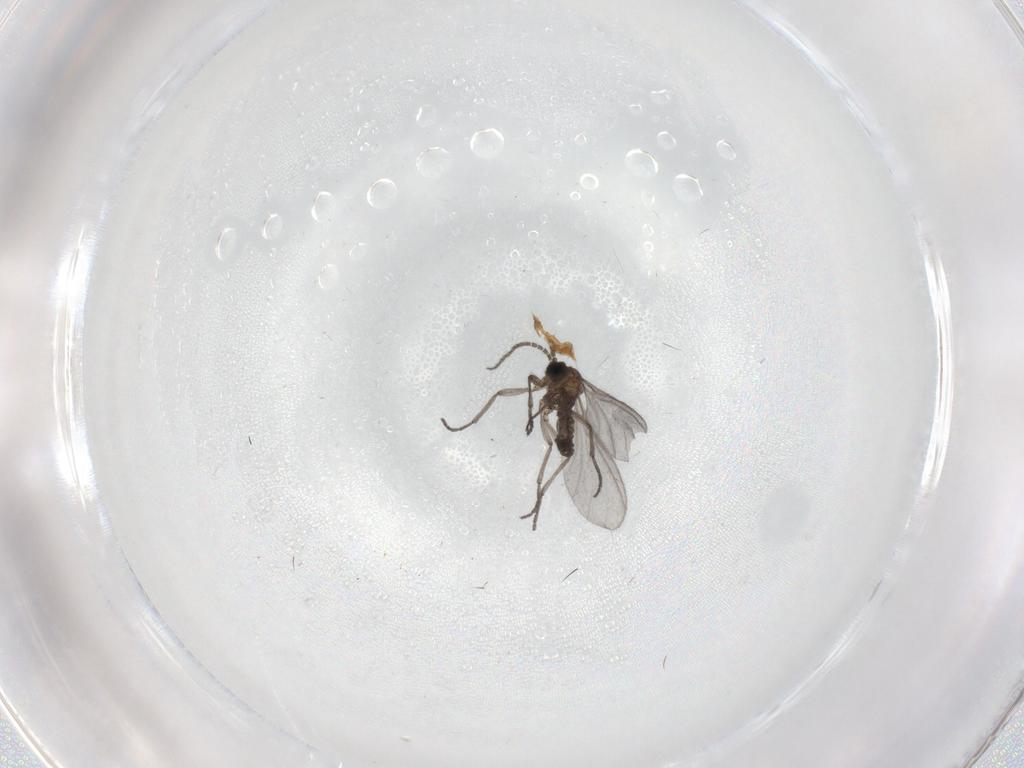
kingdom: Animalia
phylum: Arthropoda
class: Insecta
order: Diptera
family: Sciaridae
